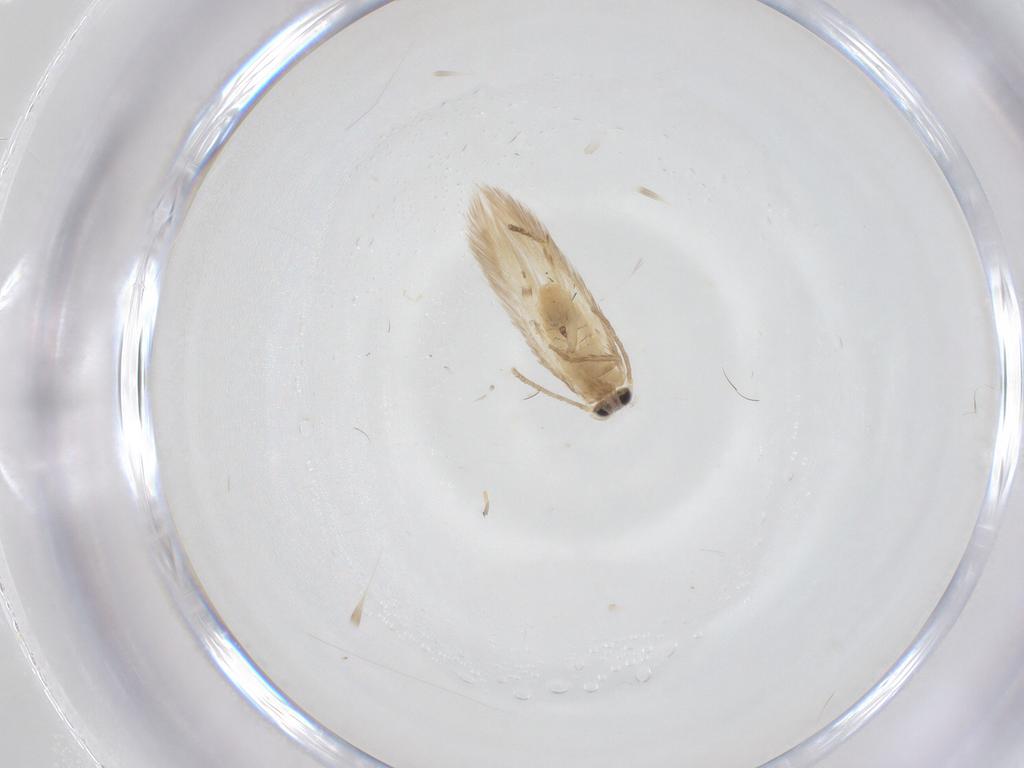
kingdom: Animalia
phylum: Arthropoda
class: Insecta
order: Lepidoptera
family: Nepticulidae
